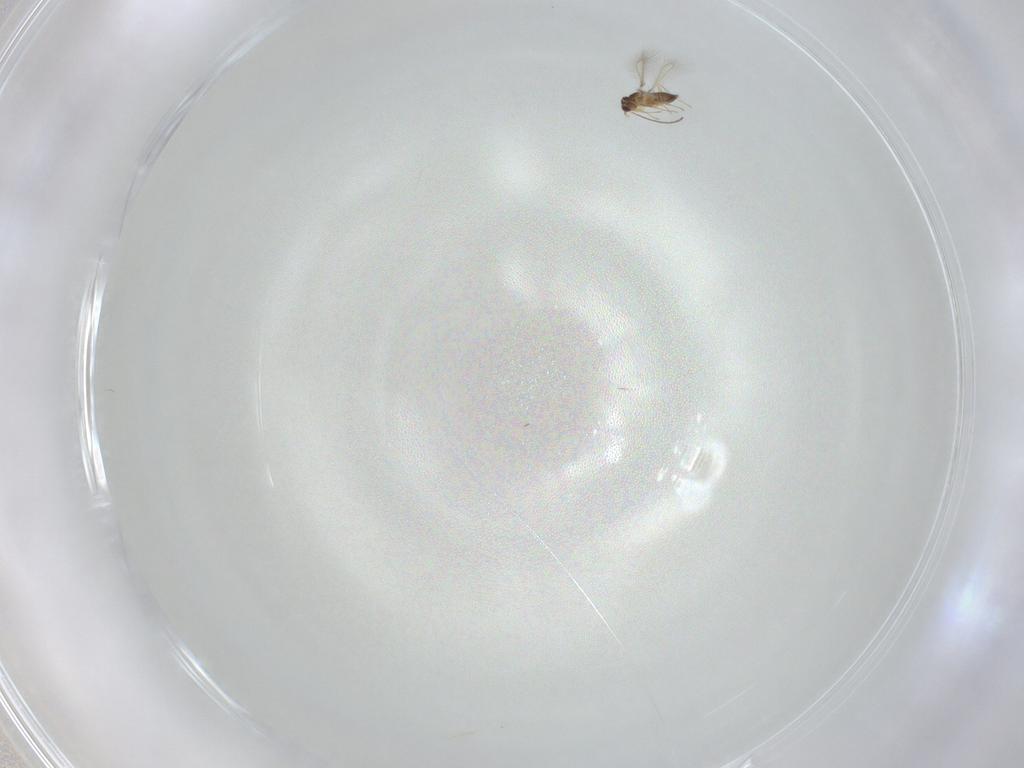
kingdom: Animalia
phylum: Arthropoda
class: Insecta
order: Hymenoptera
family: Mymaridae
